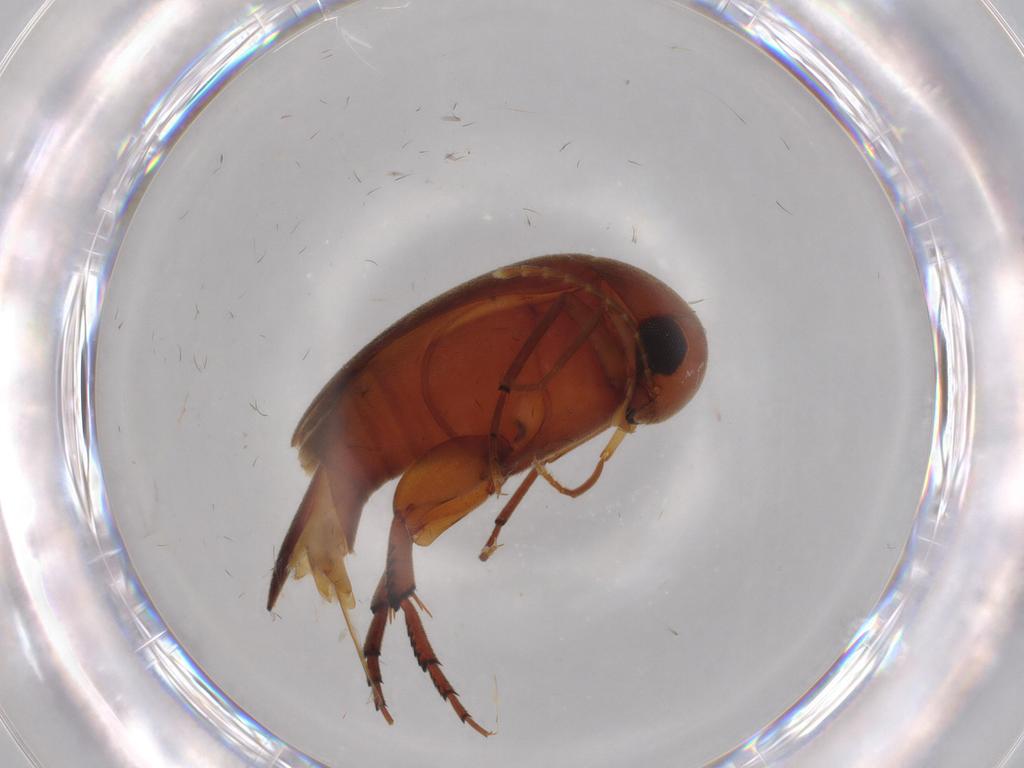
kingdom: Animalia
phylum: Arthropoda
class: Insecta
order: Coleoptera
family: Mordellidae
